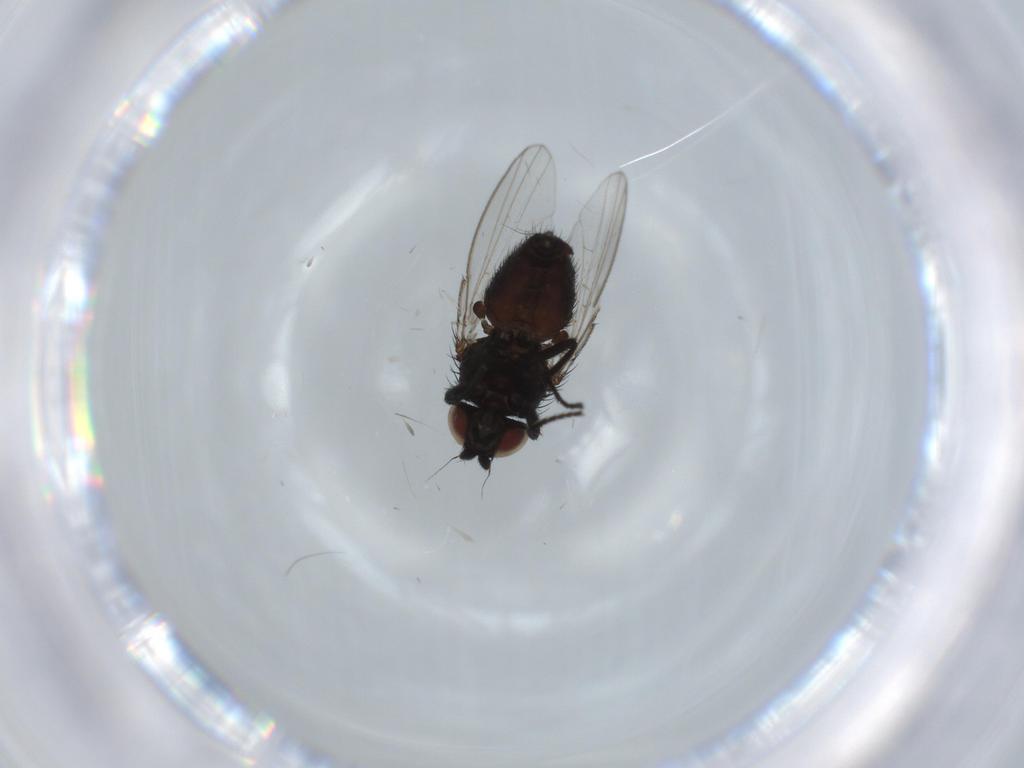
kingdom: Animalia
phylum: Arthropoda
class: Insecta
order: Diptera
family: Milichiidae
